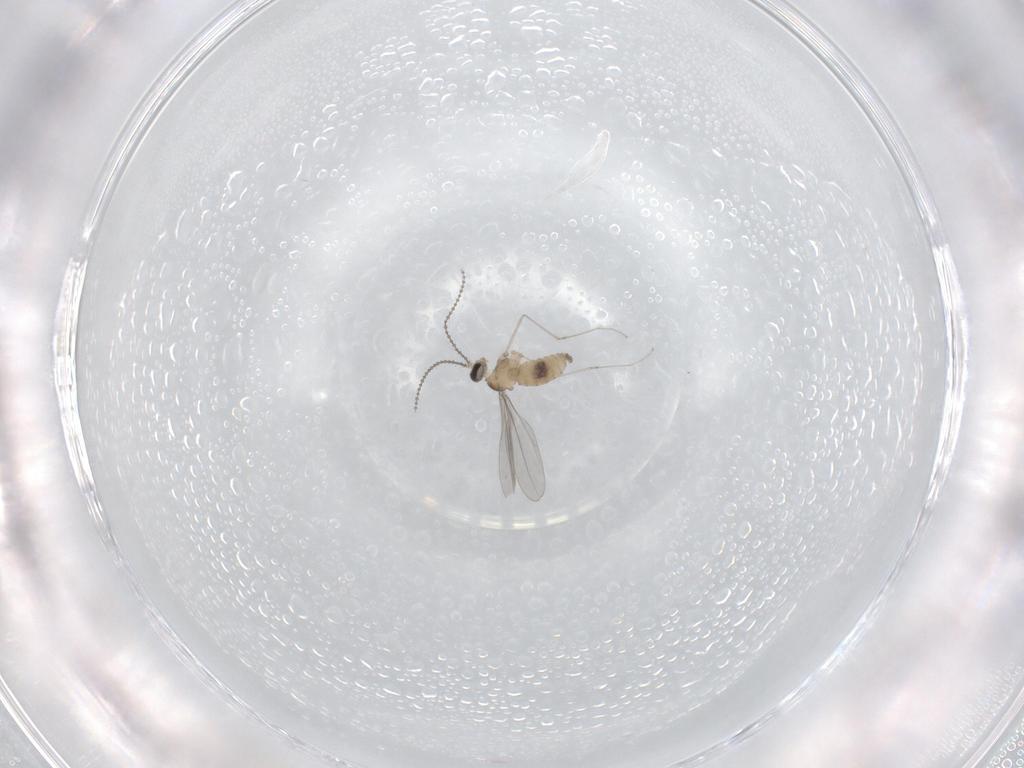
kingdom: Animalia
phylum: Arthropoda
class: Insecta
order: Diptera
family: Cecidomyiidae
